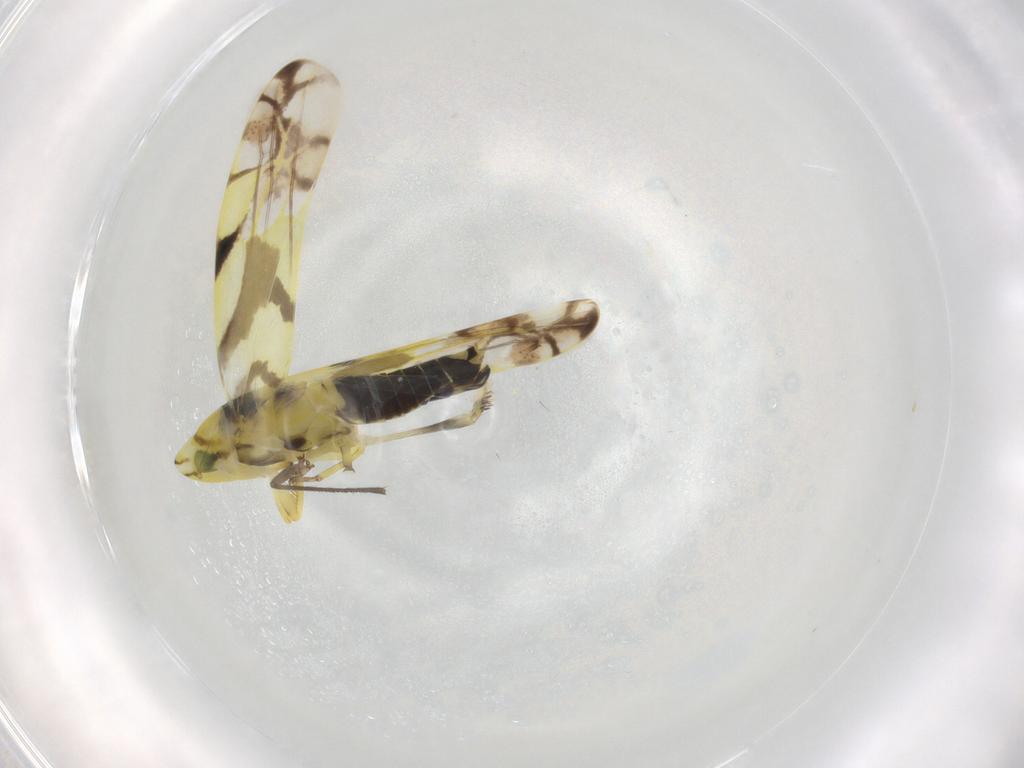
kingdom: Animalia
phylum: Arthropoda
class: Insecta
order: Hemiptera
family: Cicadellidae
